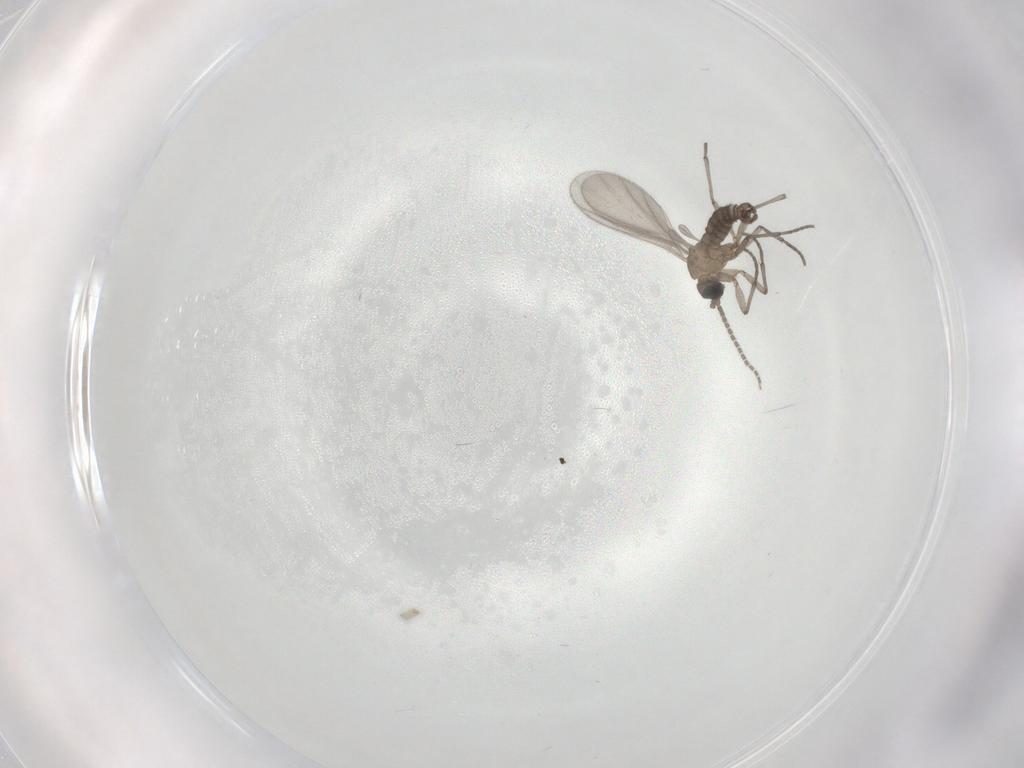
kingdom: Animalia
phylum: Arthropoda
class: Insecta
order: Diptera
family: Sciaridae
